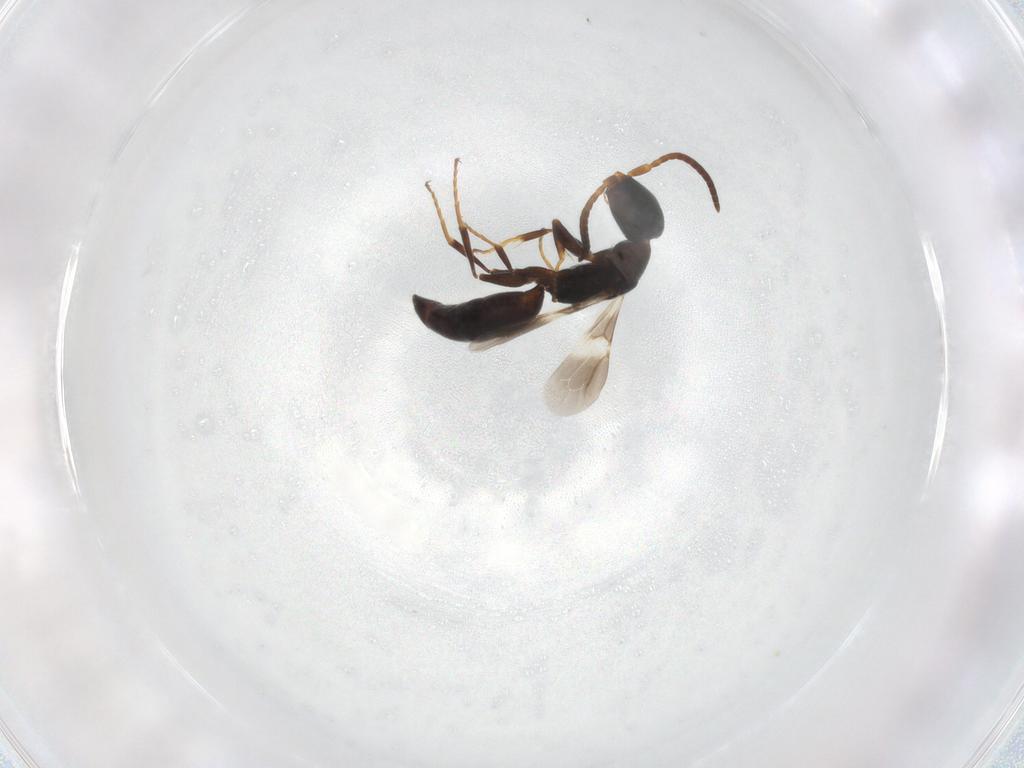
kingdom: Animalia
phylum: Arthropoda
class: Insecta
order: Hymenoptera
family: Bethylidae
